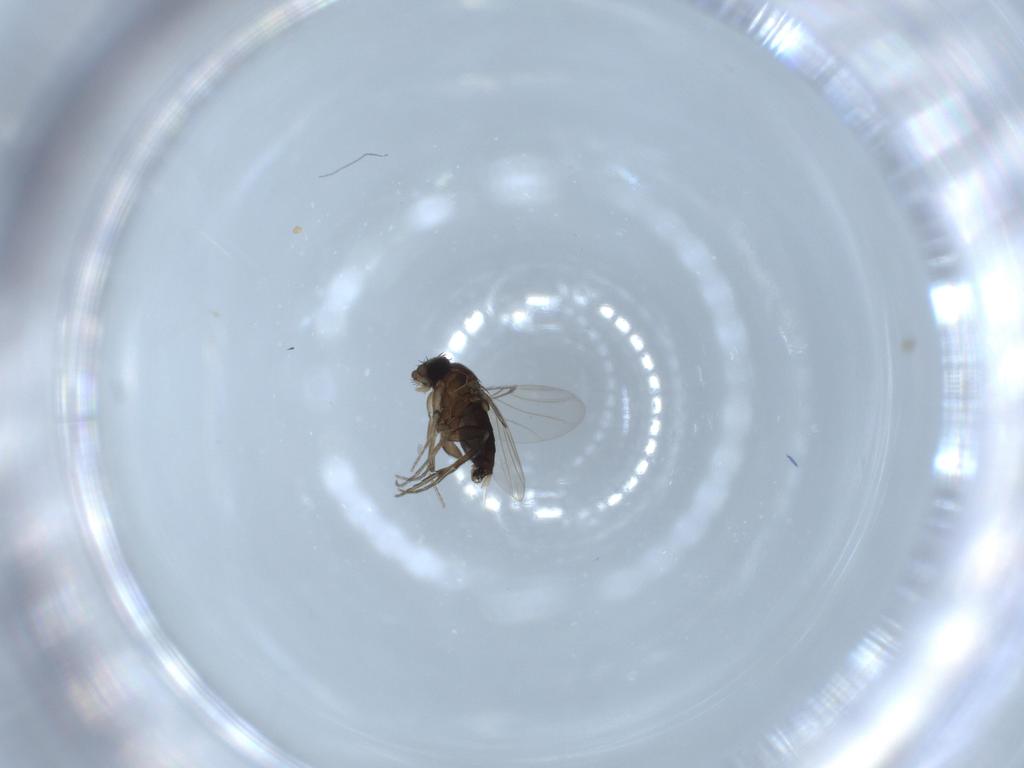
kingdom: Animalia
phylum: Arthropoda
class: Insecta
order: Diptera
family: Phoridae
